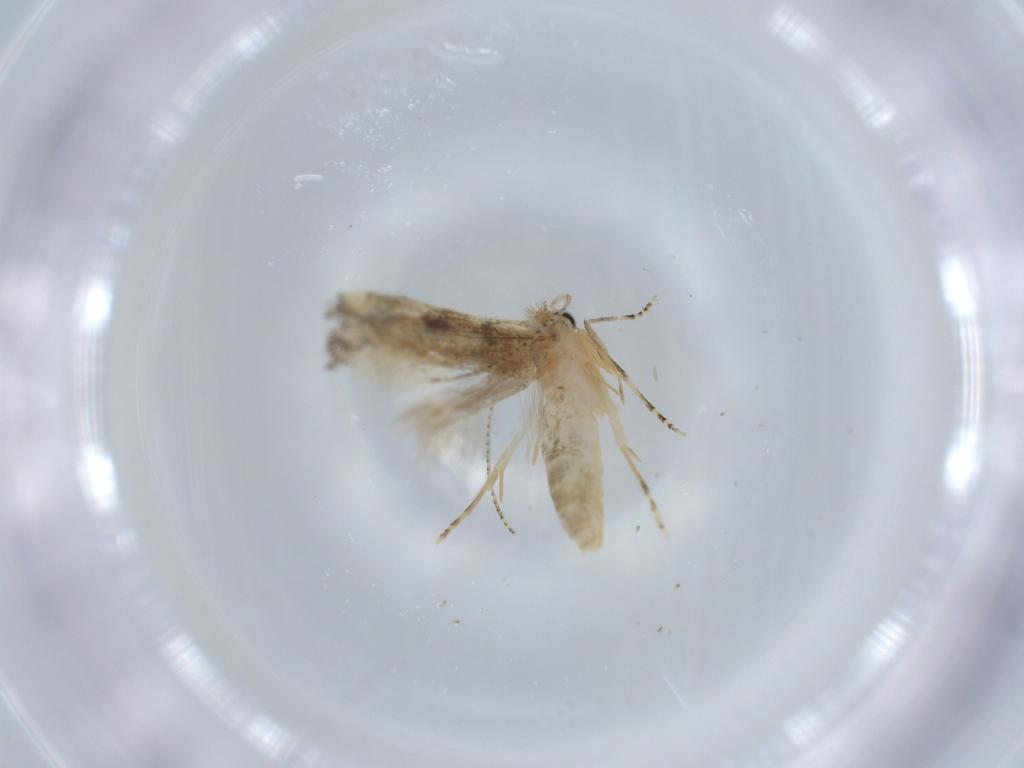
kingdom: Animalia
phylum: Arthropoda
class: Insecta
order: Lepidoptera
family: Bucculatricidae
